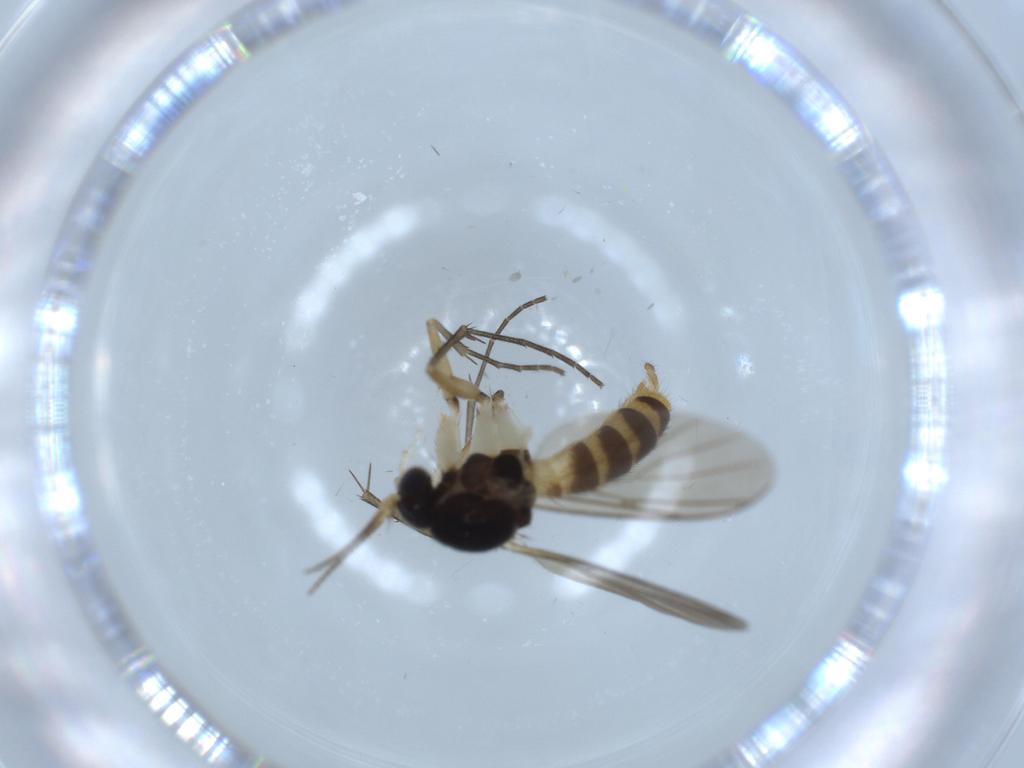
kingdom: Animalia
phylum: Arthropoda
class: Insecta
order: Diptera
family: Cecidomyiidae
